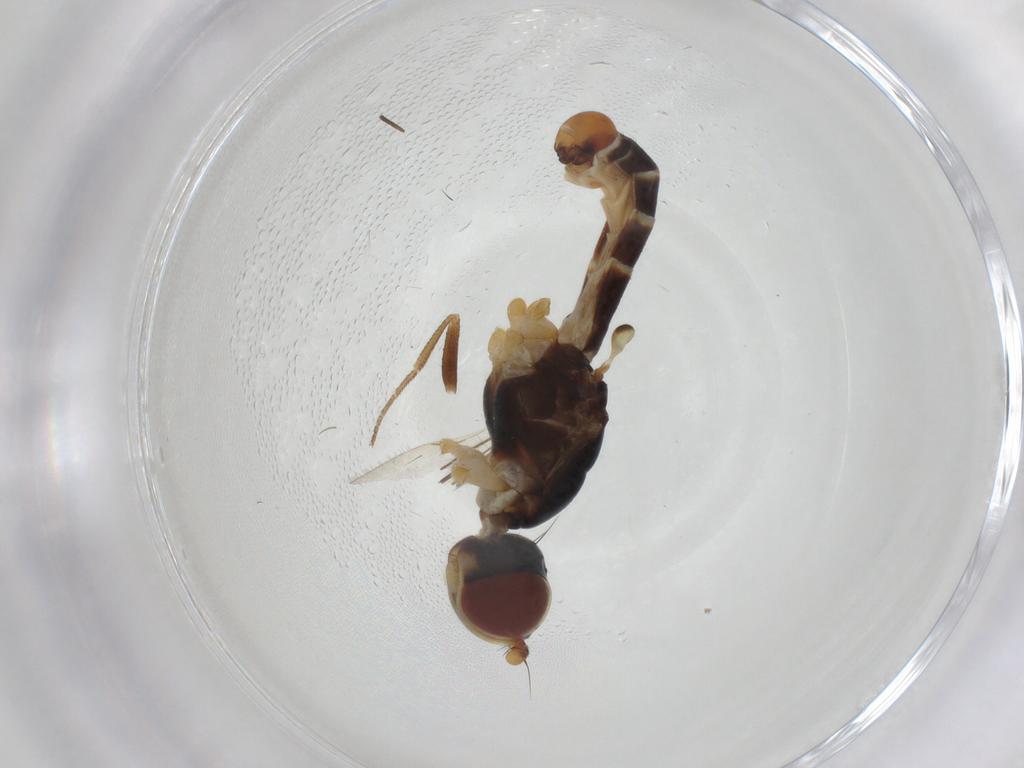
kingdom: Animalia
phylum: Arthropoda
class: Insecta
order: Diptera
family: Micropezidae
